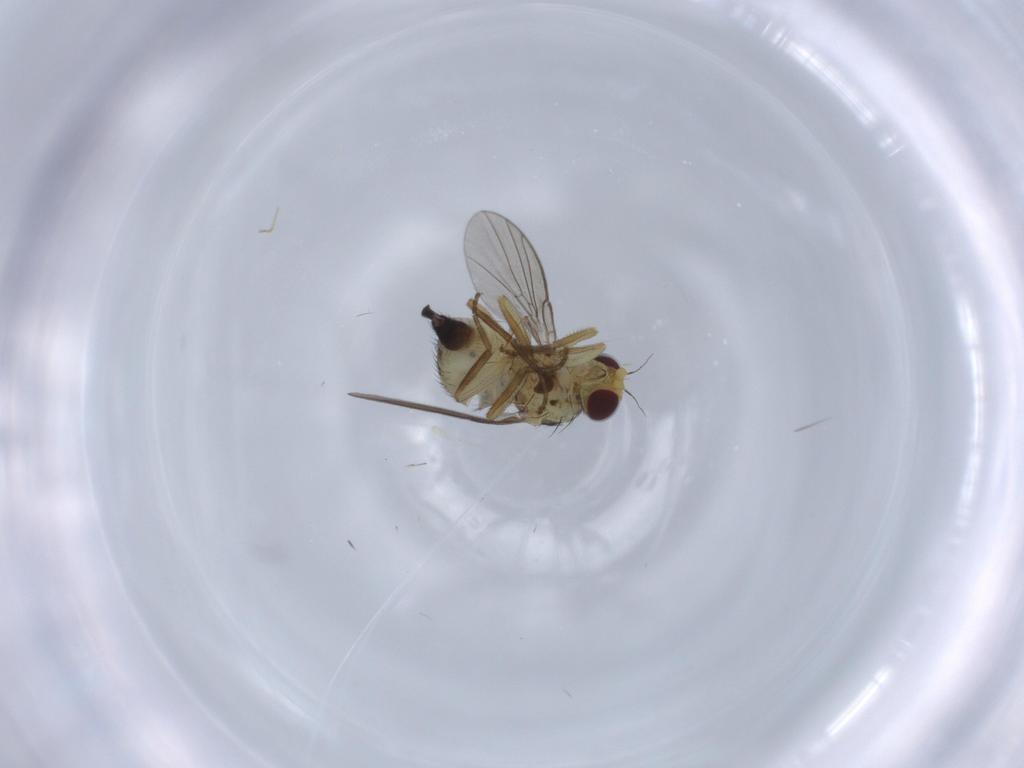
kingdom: Animalia
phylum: Arthropoda
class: Insecta
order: Diptera
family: Agromyzidae
